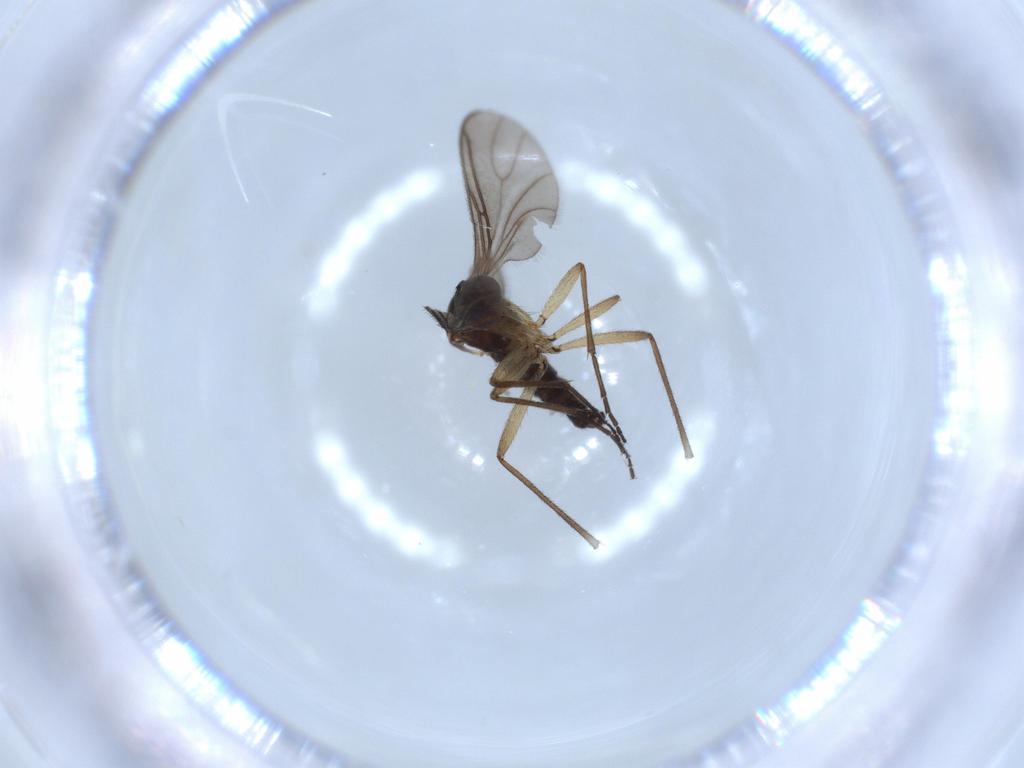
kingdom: Animalia
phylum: Arthropoda
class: Insecta
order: Diptera
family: Sciaridae
